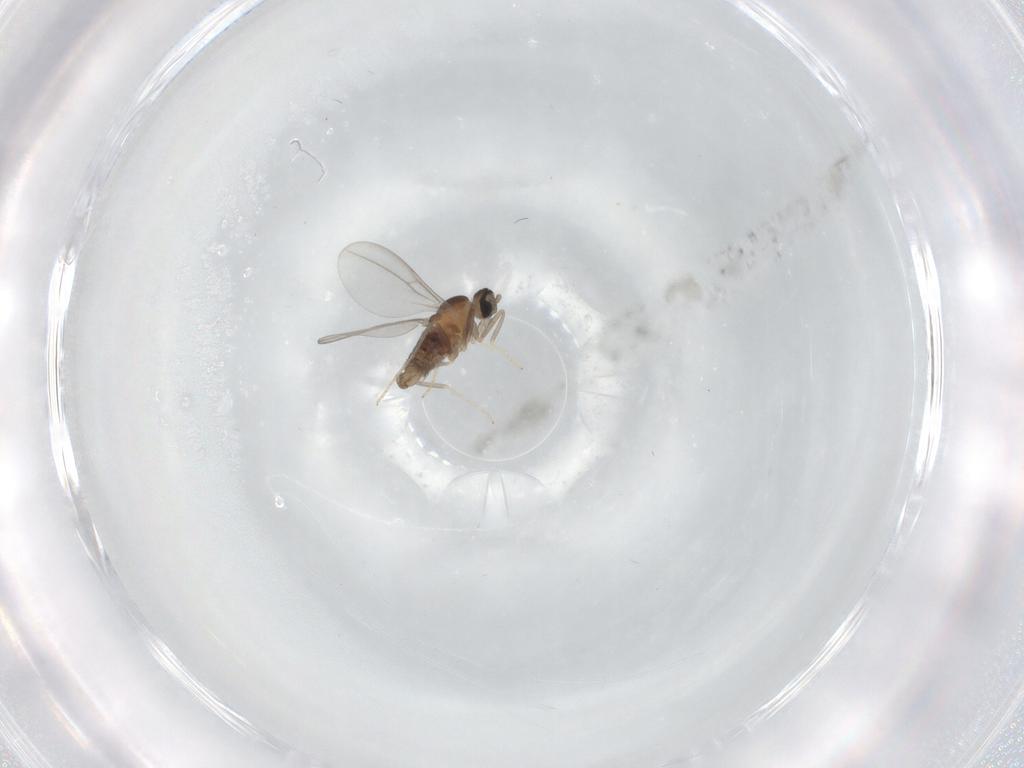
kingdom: Animalia
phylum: Arthropoda
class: Insecta
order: Diptera
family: Cecidomyiidae
